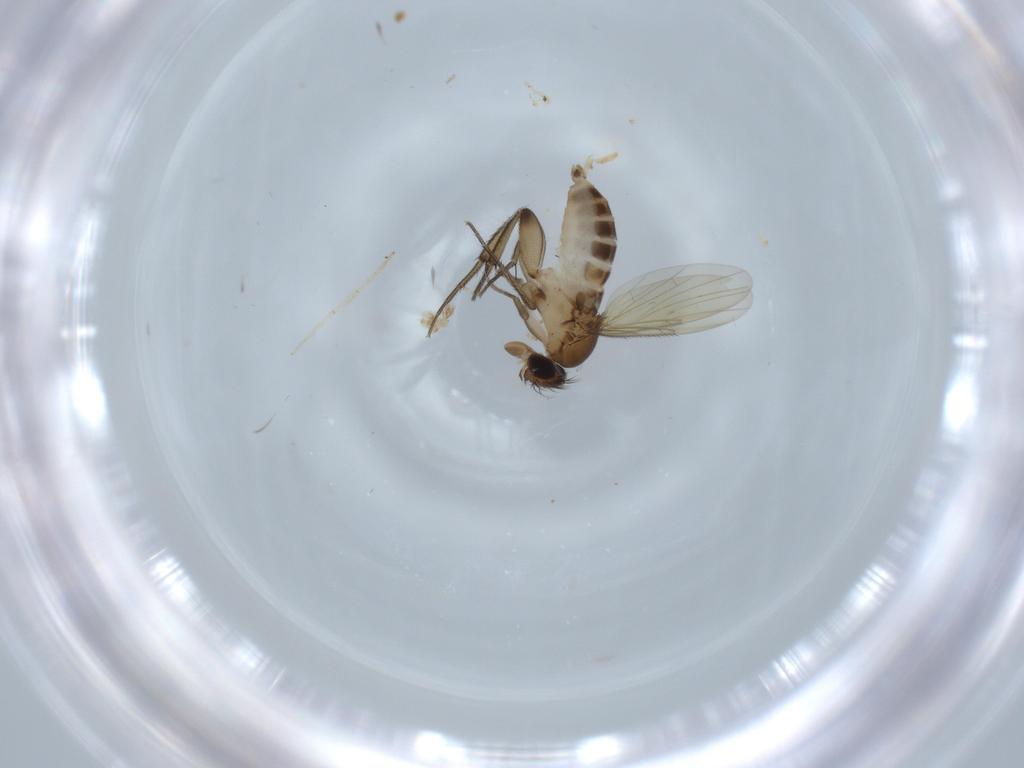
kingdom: Animalia
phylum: Arthropoda
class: Insecta
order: Diptera
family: Phoridae
